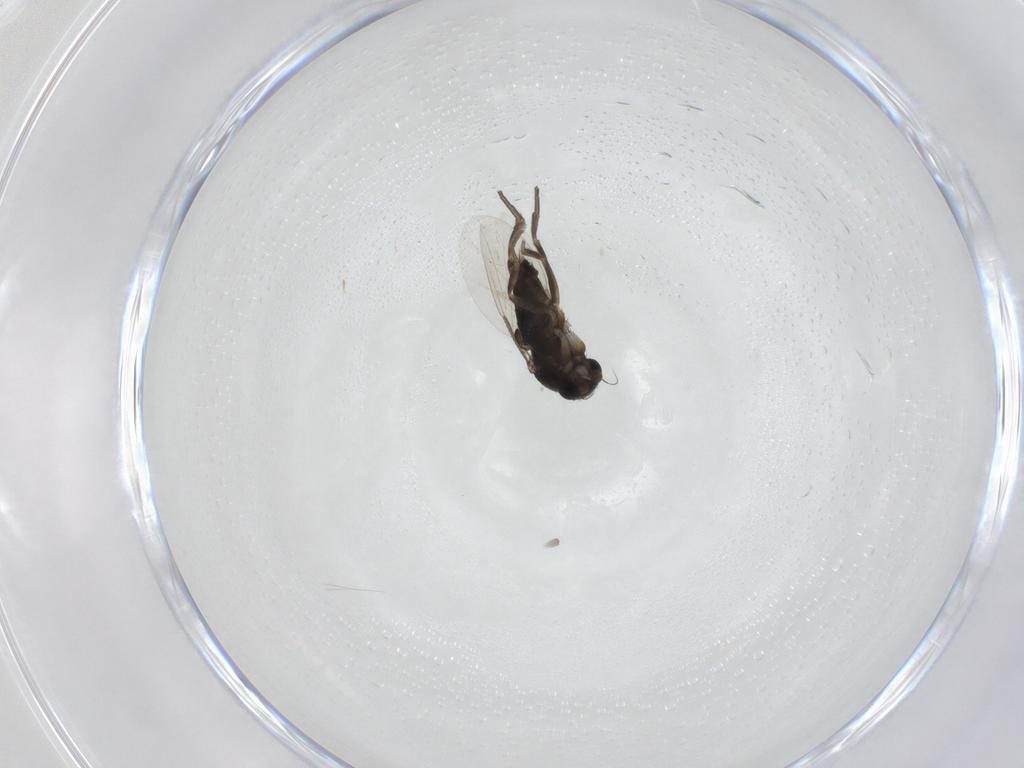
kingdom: Animalia
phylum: Arthropoda
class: Insecta
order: Diptera
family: Phoridae
